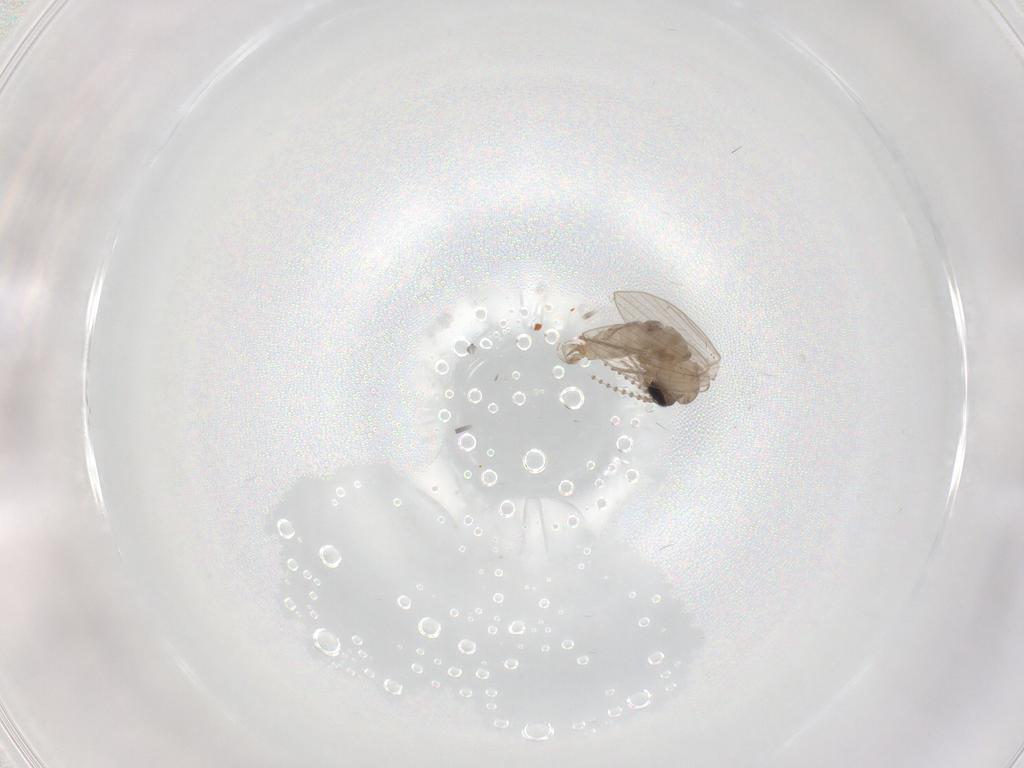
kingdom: Animalia
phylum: Arthropoda
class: Insecta
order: Diptera
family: Psychodidae
